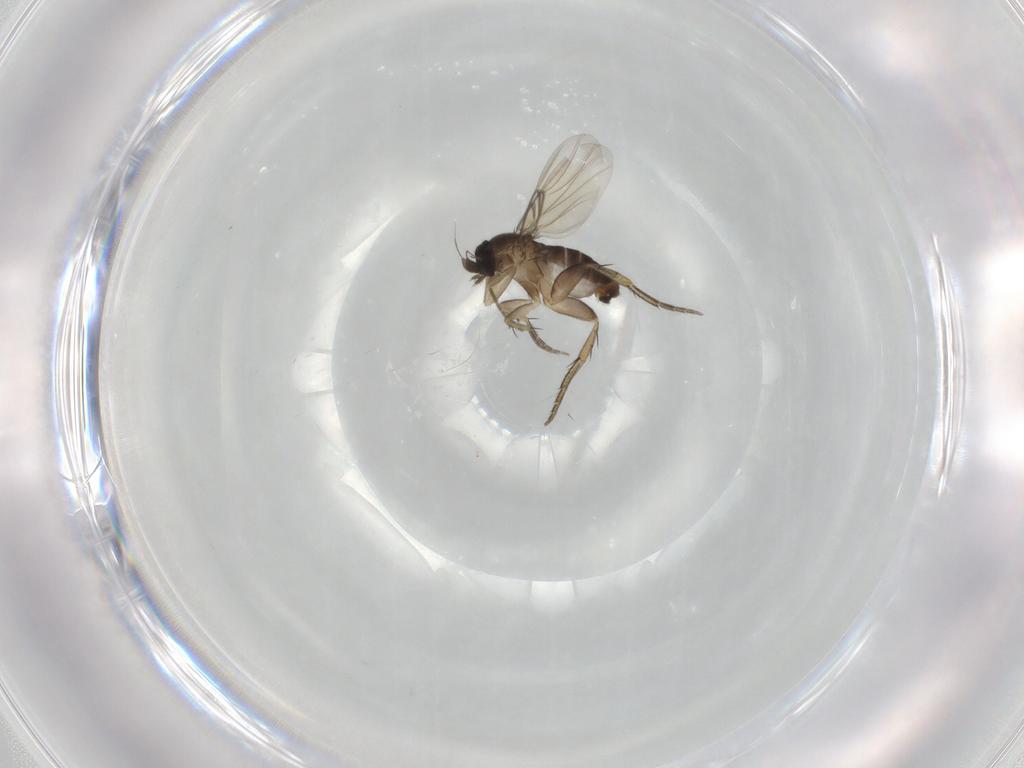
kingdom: Animalia
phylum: Arthropoda
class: Insecta
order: Diptera
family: Phoridae
